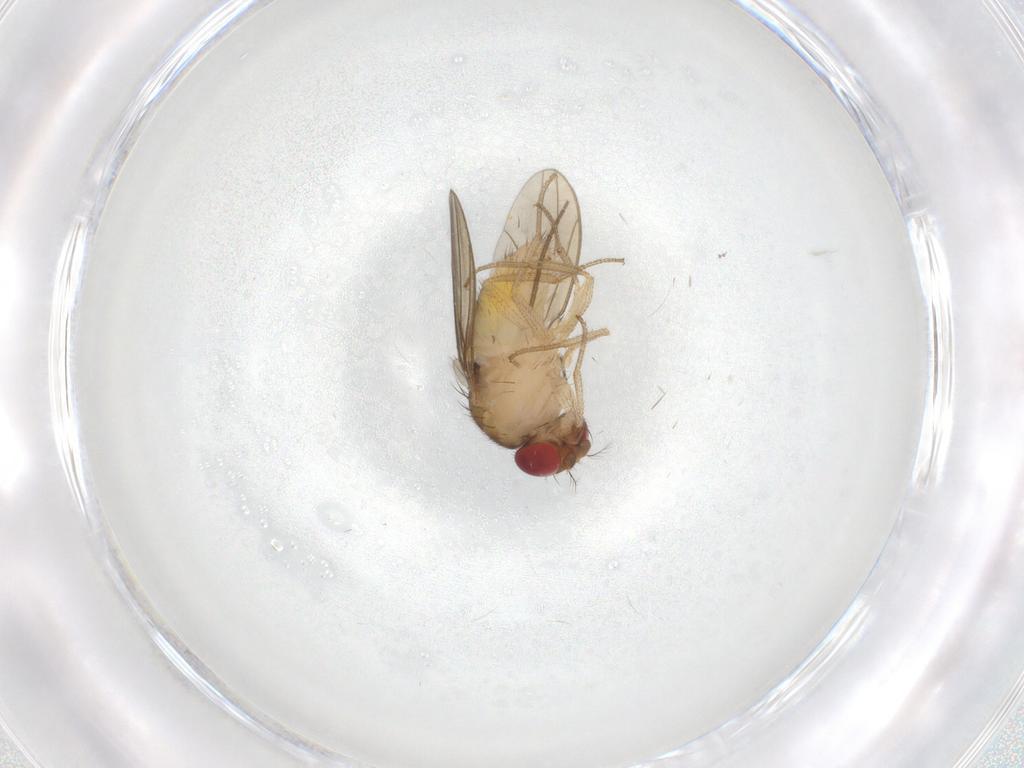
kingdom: Animalia
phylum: Arthropoda
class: Insecta
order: Diptera
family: Drosophilidae
